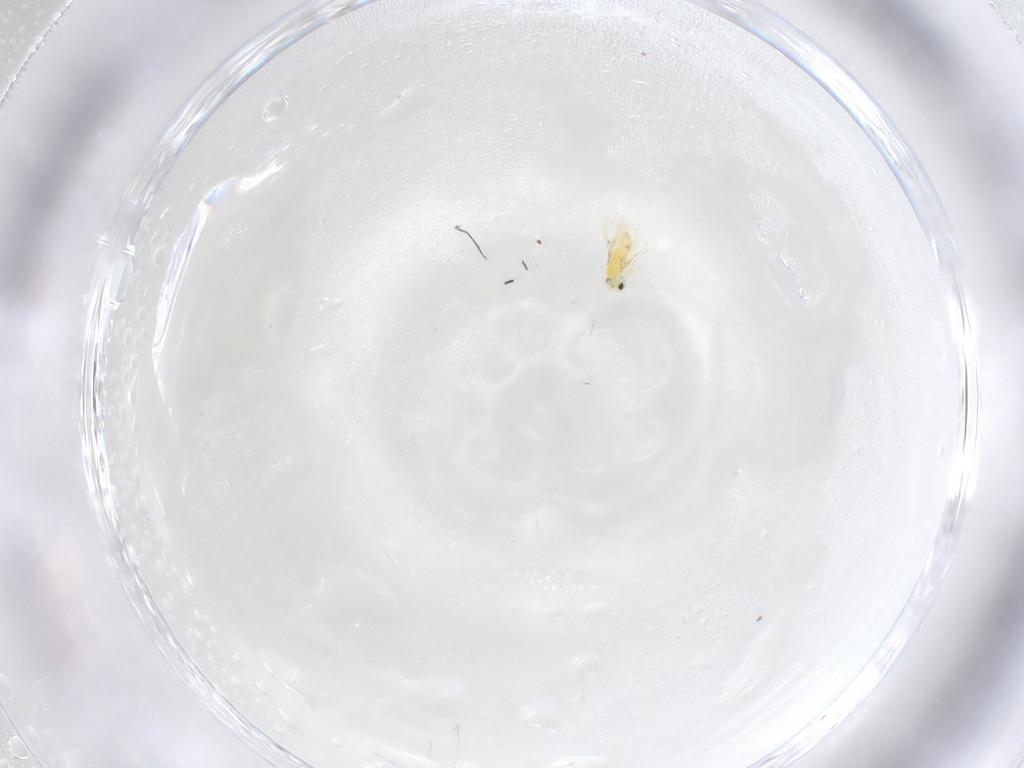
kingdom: Animalia
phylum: Arthropoda
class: Insecta
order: Hymenoptera
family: Trichogrammatidae
